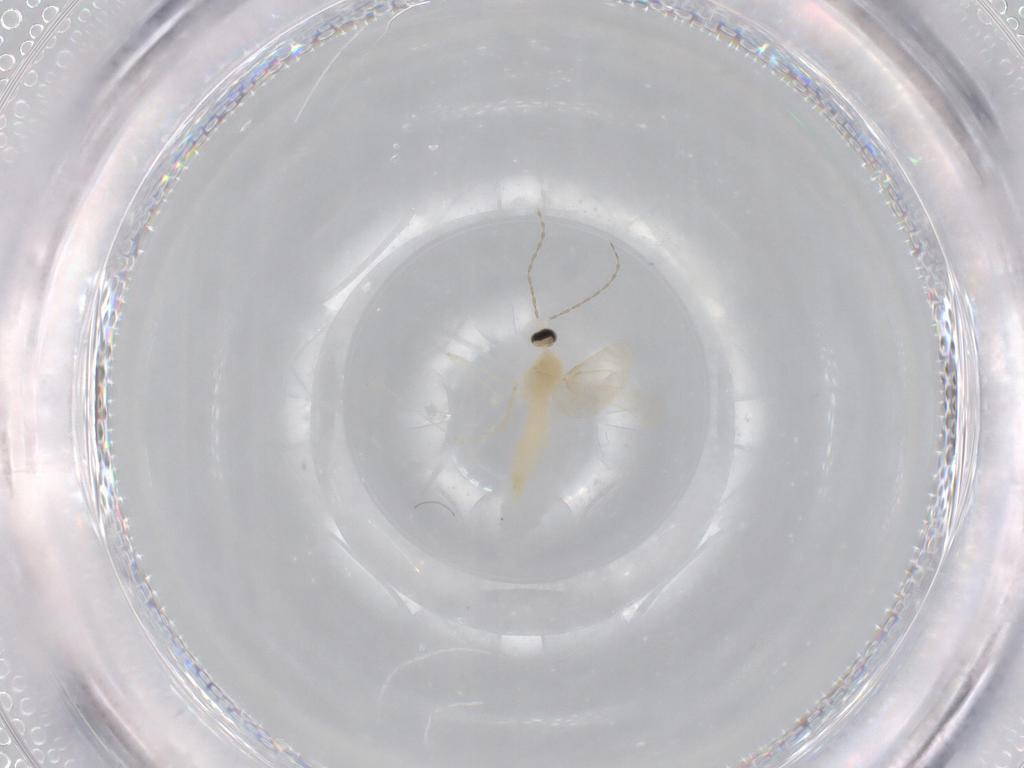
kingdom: Animalia
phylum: Arthropoda
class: Insecta
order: Diptera
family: Cecidomyiidae
